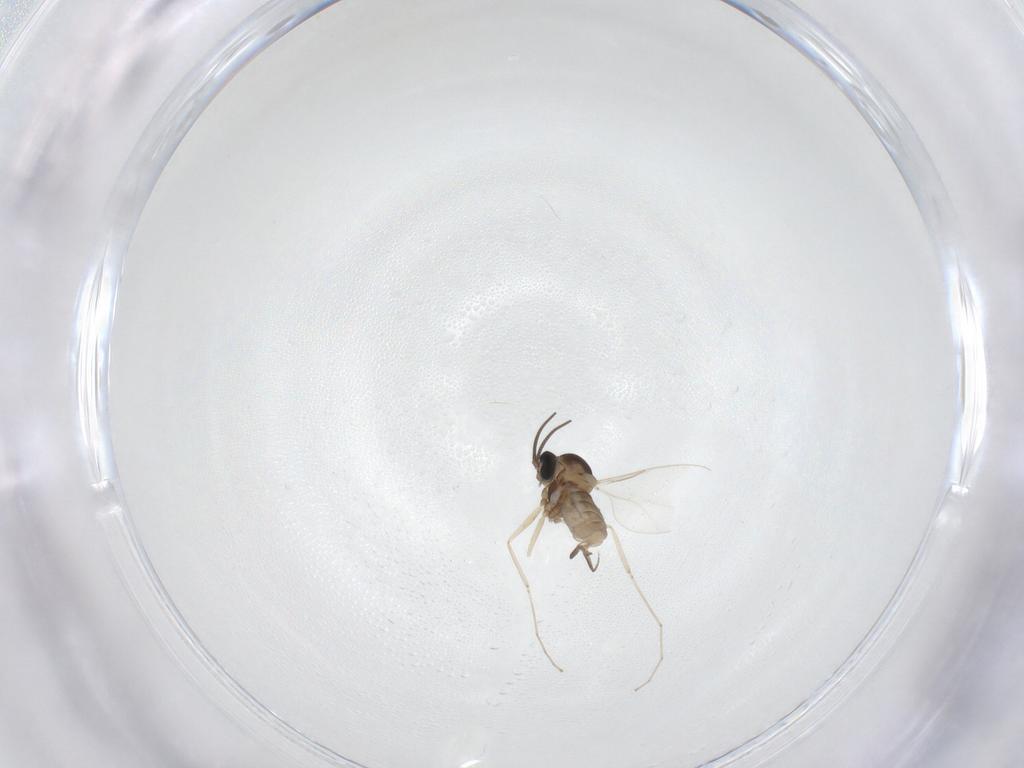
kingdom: Animalia
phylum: Arthropoda
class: Insecta
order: Diptera
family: Cecidomyiidae
